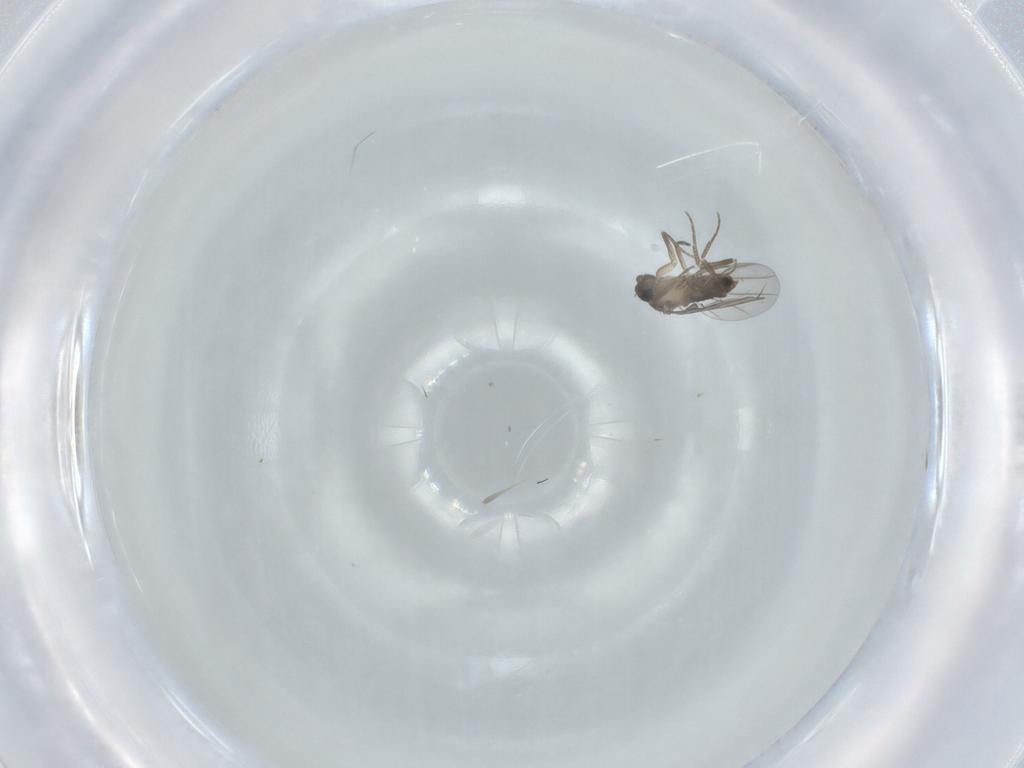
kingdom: Animalia
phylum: Arthropoda
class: Insecta
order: Diptera
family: Phoridae
